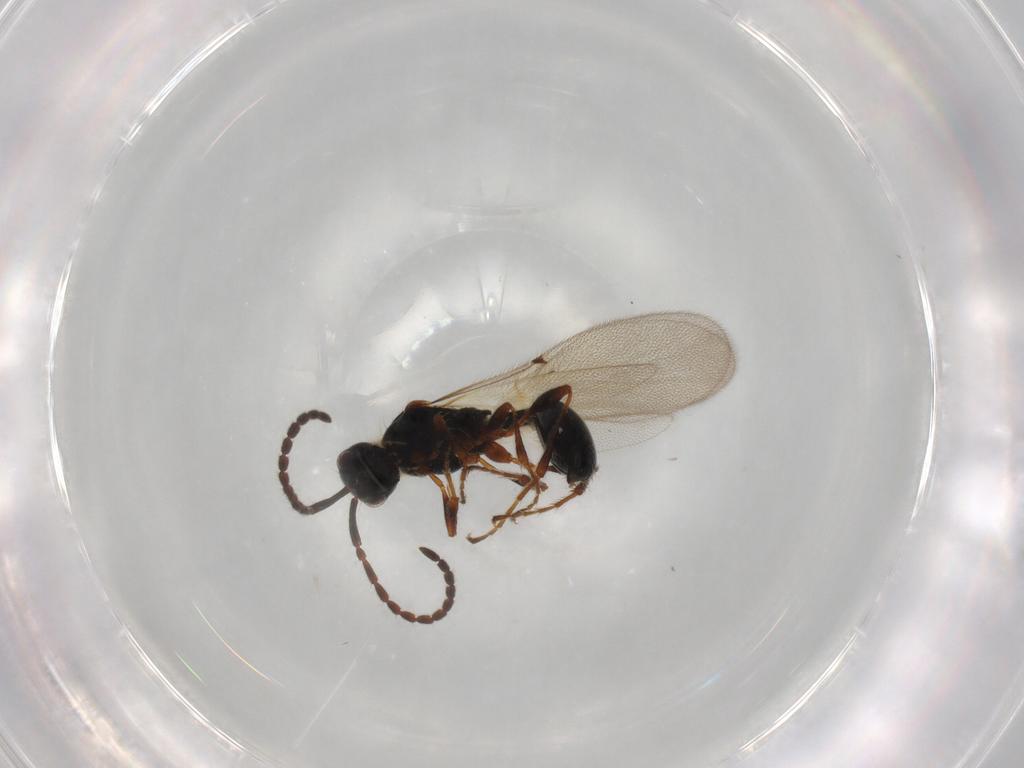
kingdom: Animalia
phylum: Arthropoda
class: Insecta
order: Hymenoptera
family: Diapriidae
